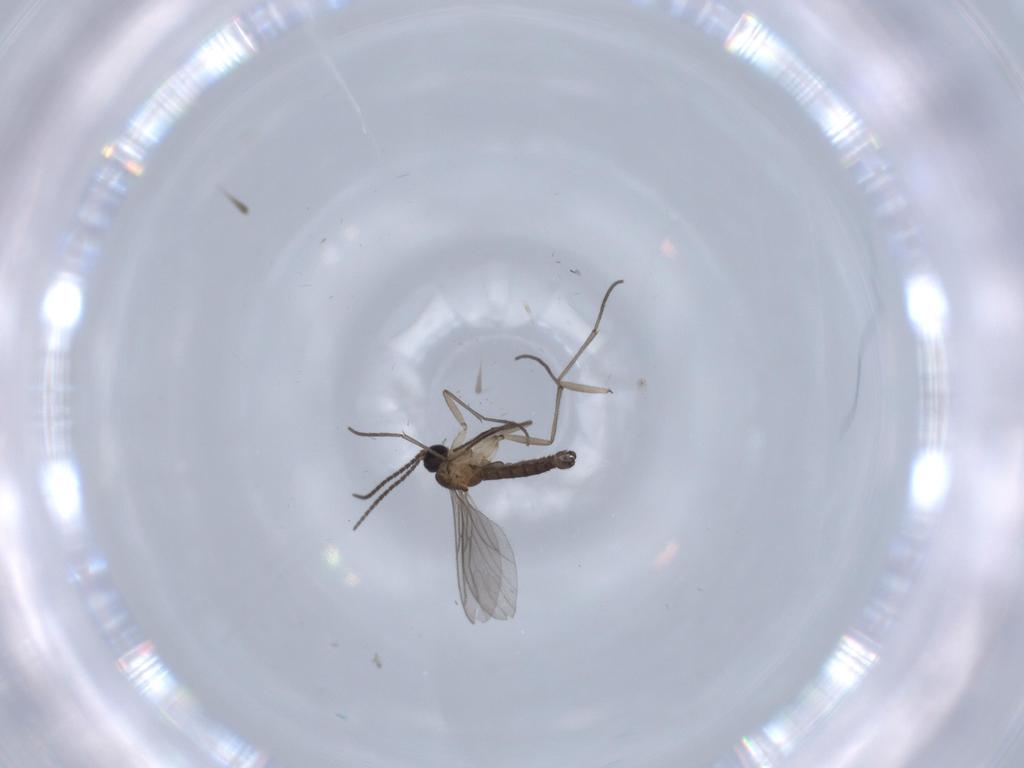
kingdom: Animalia
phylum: Arthropoda
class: Insecta
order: Diptera
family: Sciaridae
